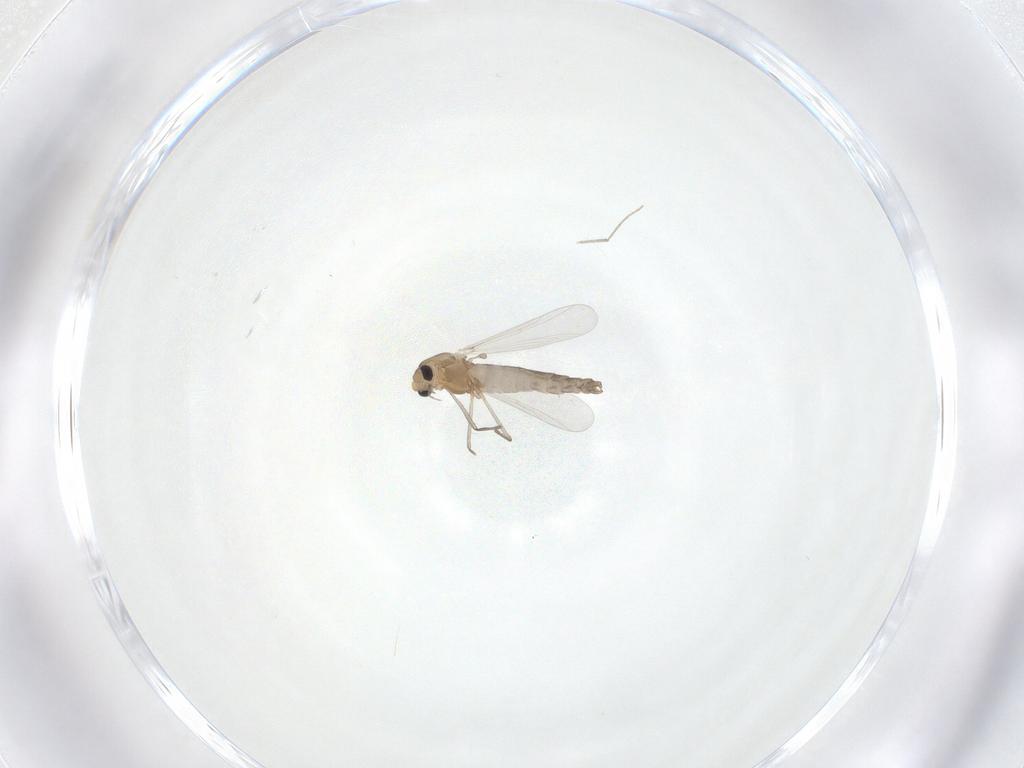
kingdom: Animalia
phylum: Arthropoda
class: Insecta
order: Diptera
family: Chironomidae
